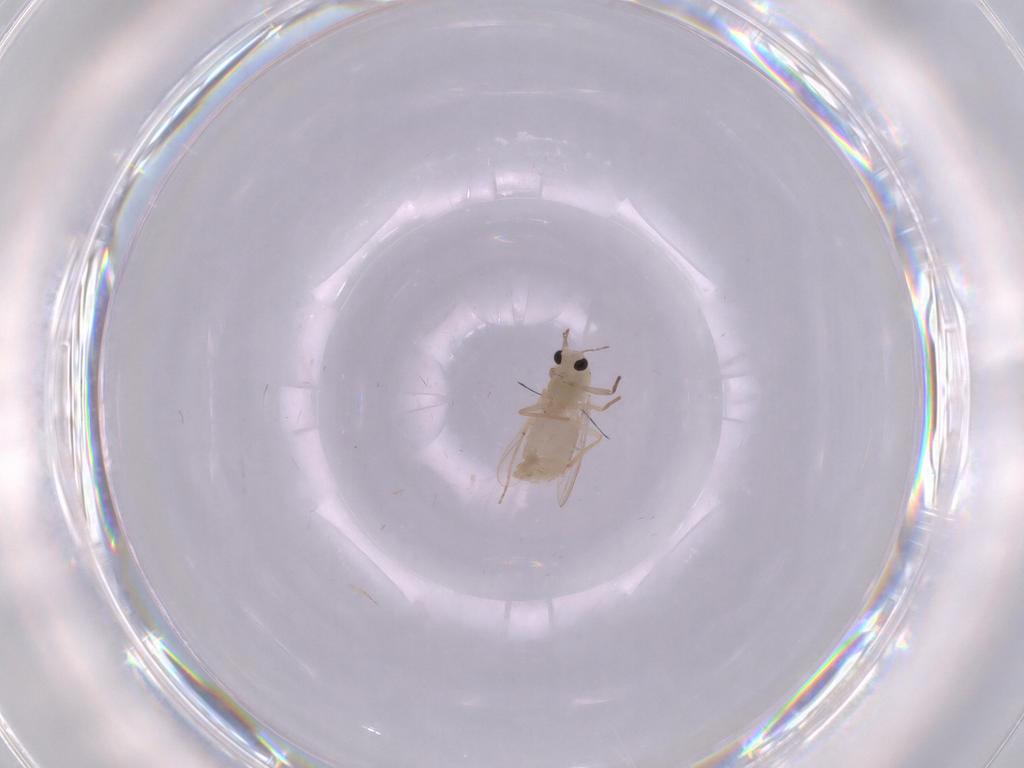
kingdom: Animalia
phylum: Arthropoda
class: Insecta
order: Diptera
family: Chironomidae
